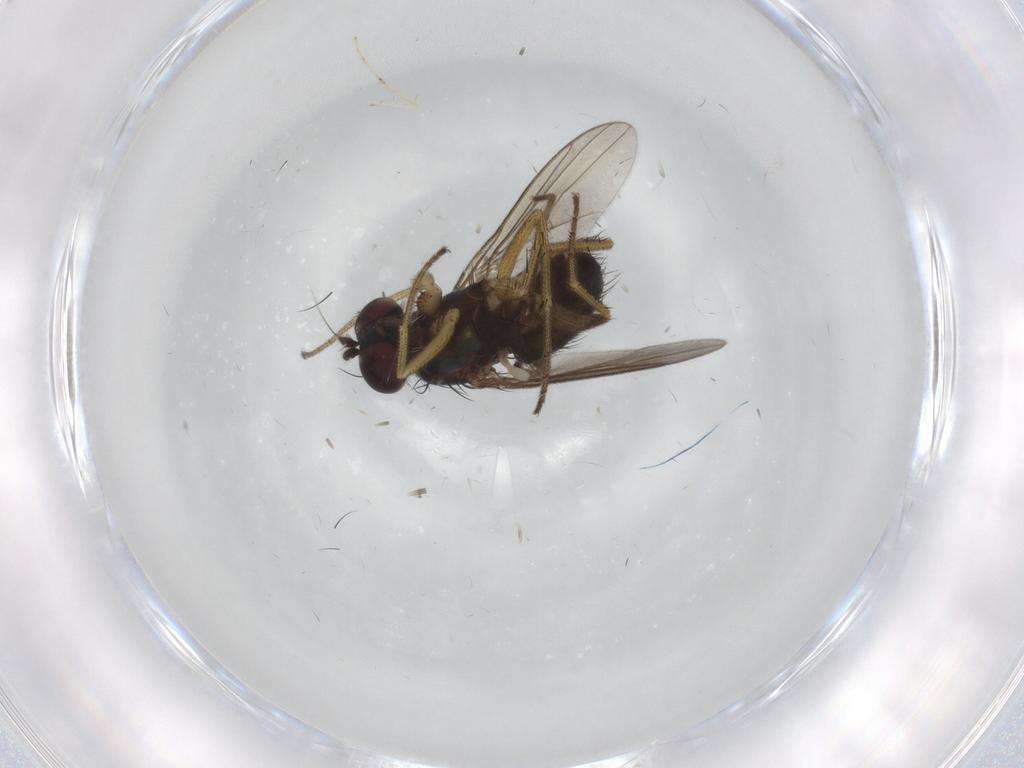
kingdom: Animalia
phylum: Arthropoda
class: Insecta
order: Diptera
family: Dolichopodidae
